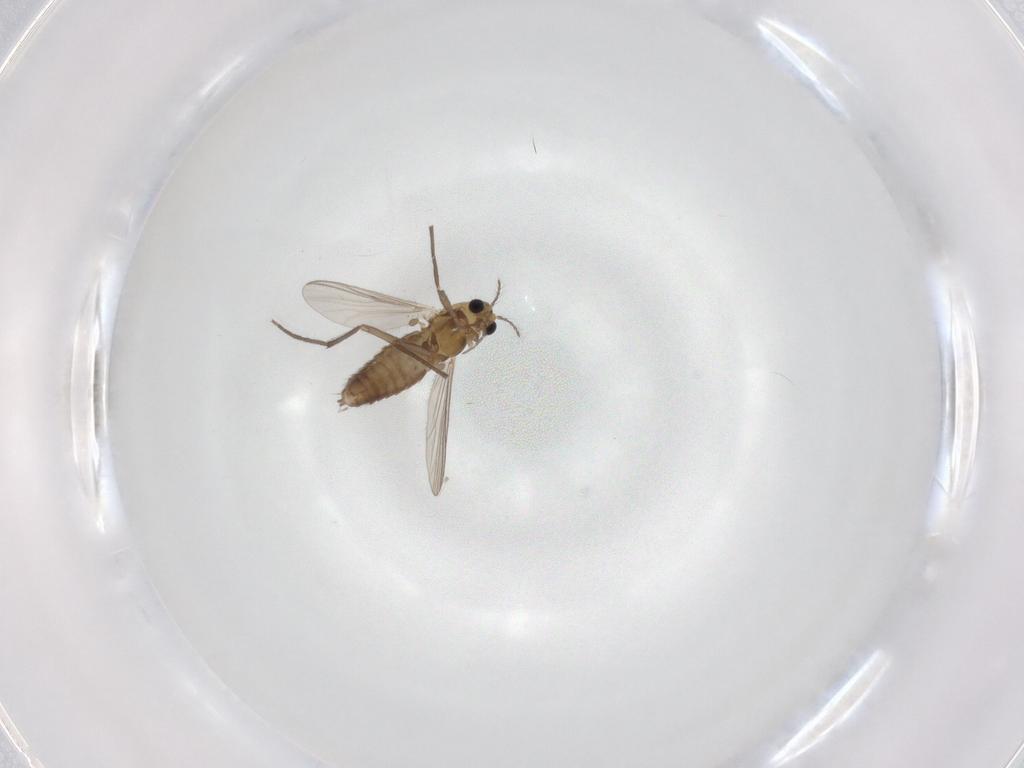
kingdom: Animalia
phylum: Arthropoda
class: Insecta
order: Diptera
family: Chironomidae
